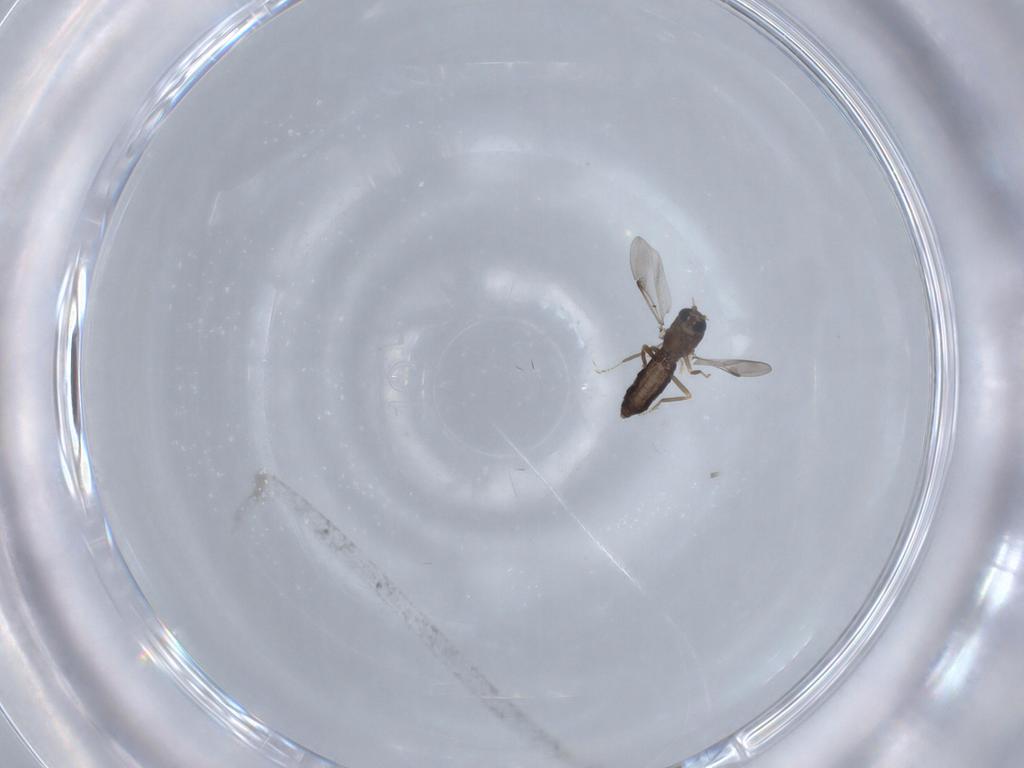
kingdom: Animalia
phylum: Arthropoda
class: Insecta
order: Diptera
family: Ceratopogonidae
